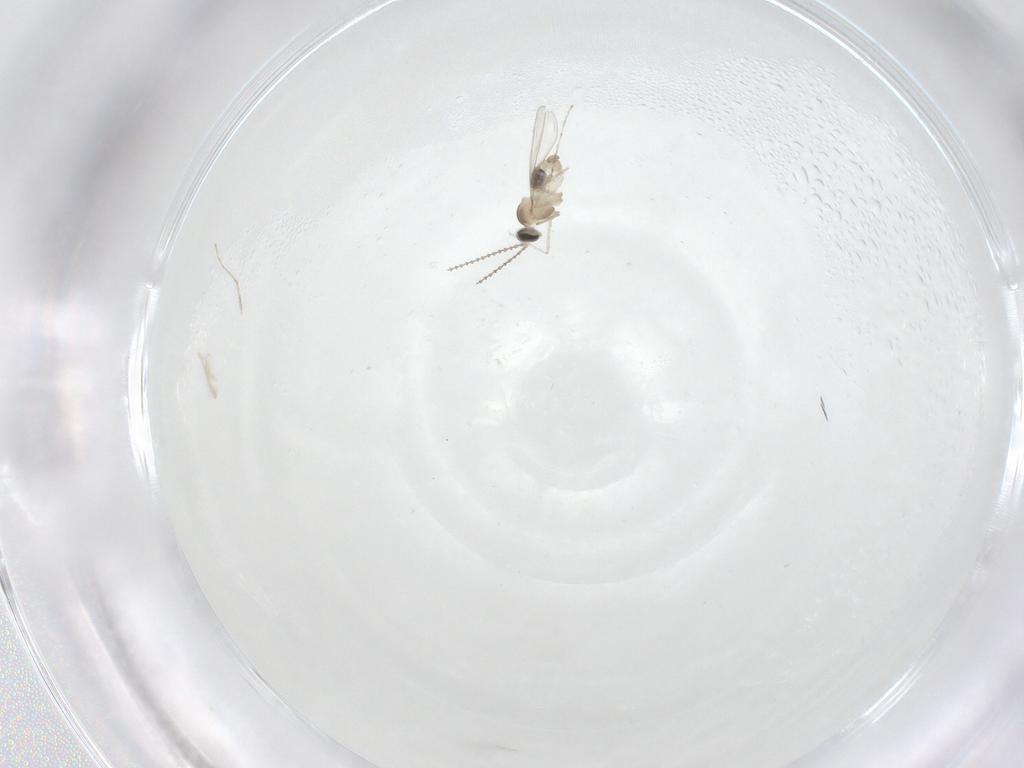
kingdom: Animalia
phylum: Arthropoda
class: Insecta
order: Diptera
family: Cecidomyiidae
